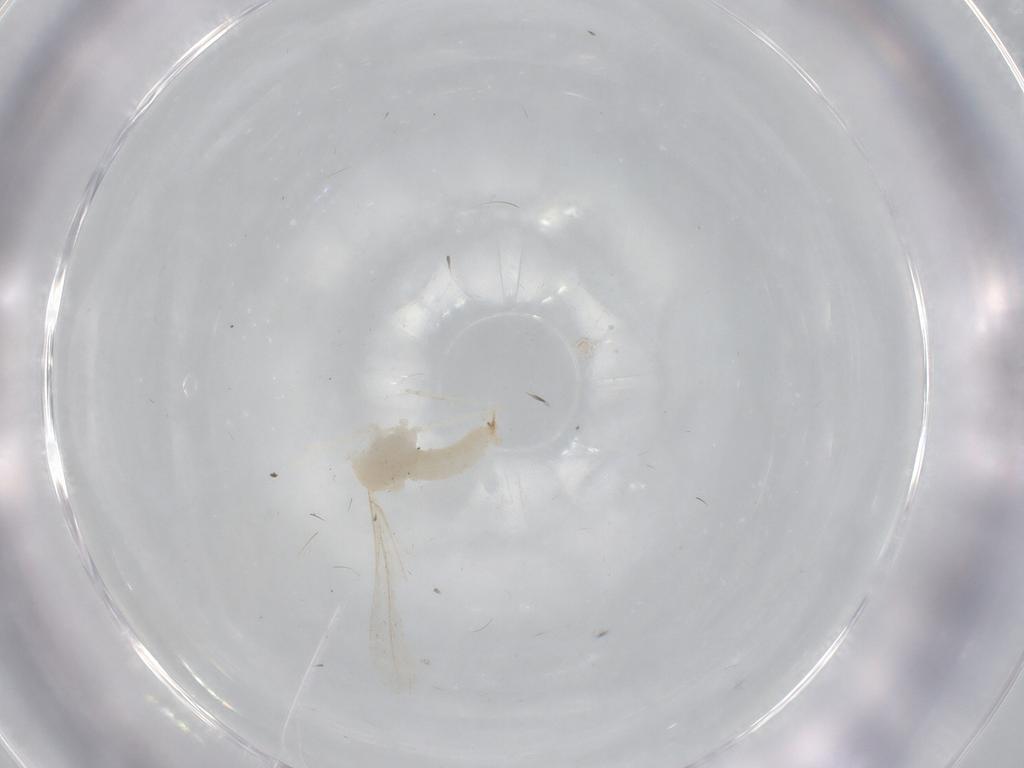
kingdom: Animalia
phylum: Arthropoda
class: Insecta
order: Diptera
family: Cecidomyiidae
